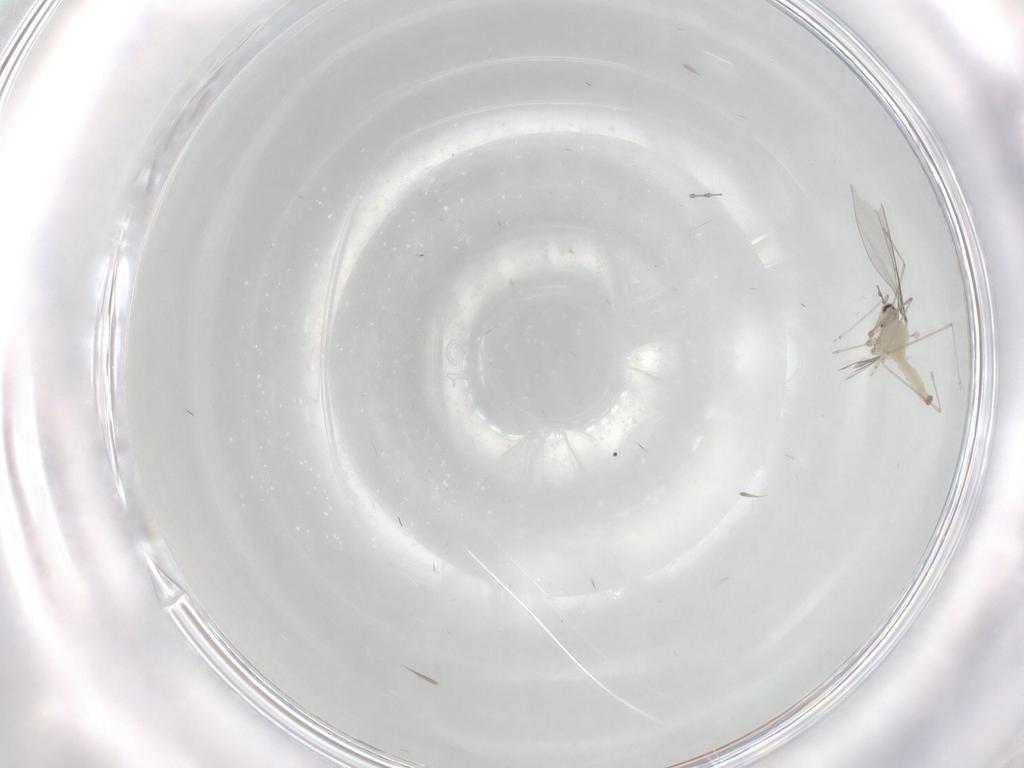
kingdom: Animalia
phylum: Arthropoda
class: Insecta
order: Diptera
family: Chironomidae
